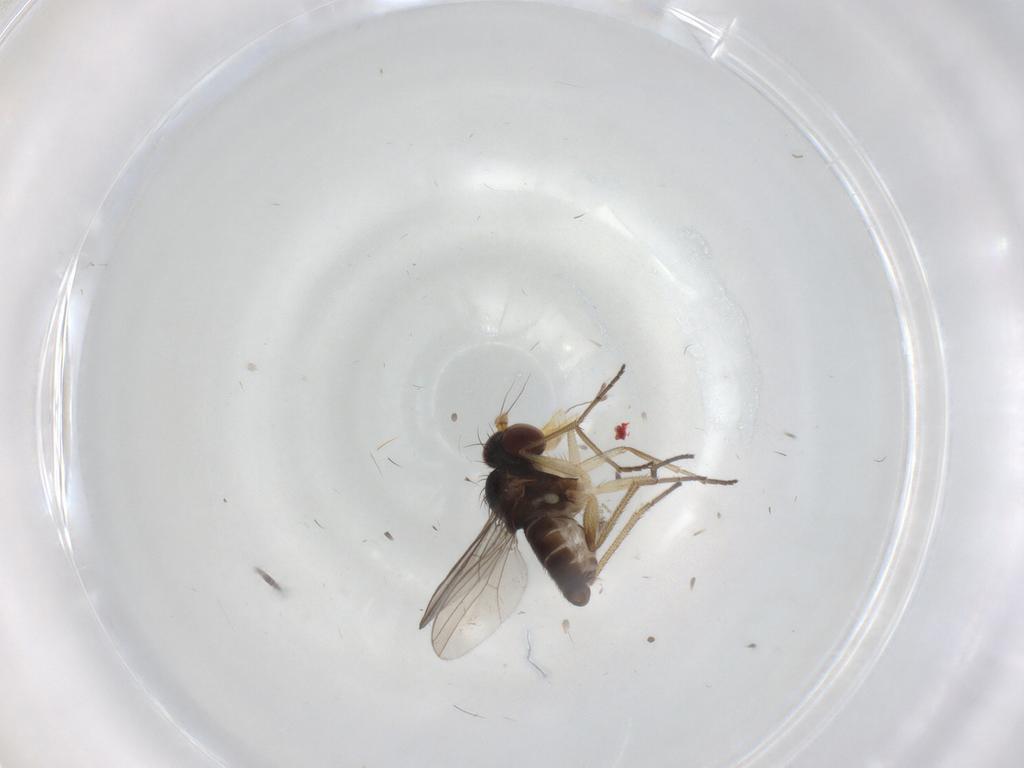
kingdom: Animalia
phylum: Arthropoda
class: Insecta
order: Diptera
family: Dolichopodidae
